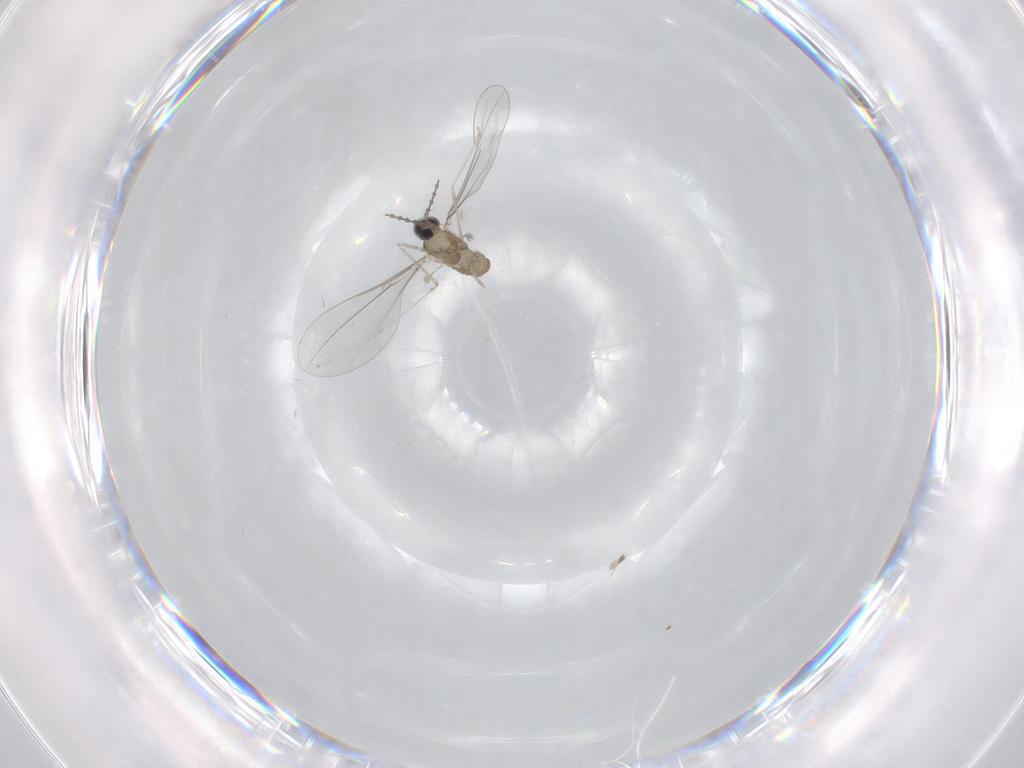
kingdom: Animalia
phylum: Arthropoda
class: Insecta
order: Diptera
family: Cecidomyiidae
